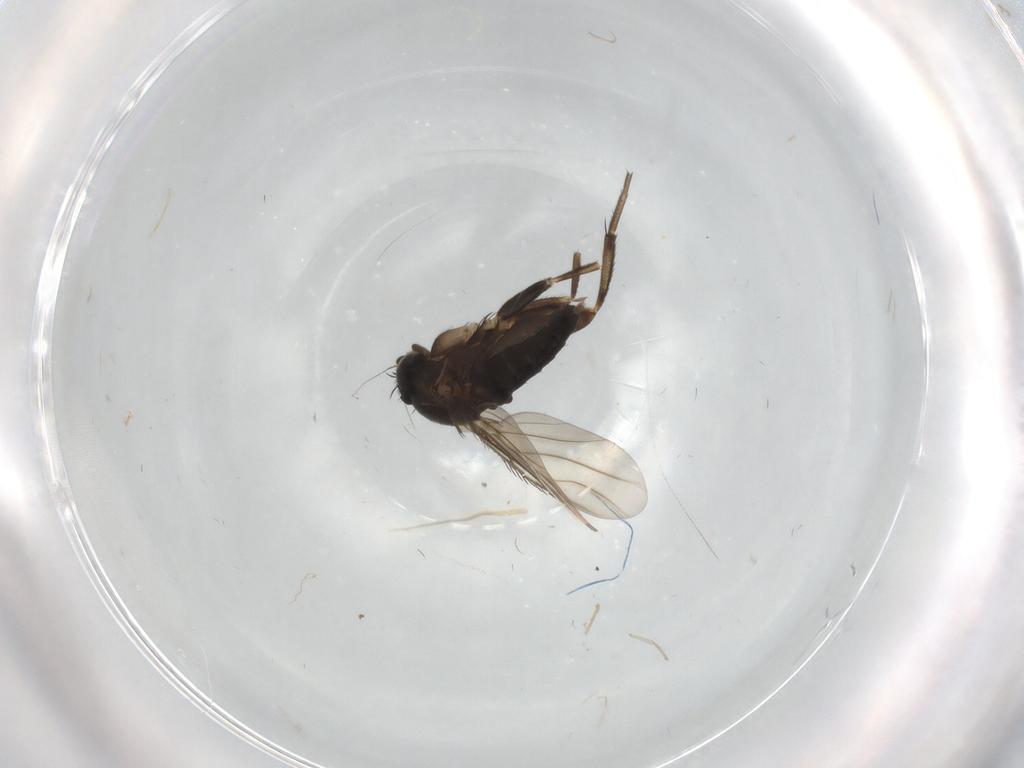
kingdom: Animalia
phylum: Arthropoda
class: Insecta
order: Diptera
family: Phoridae
